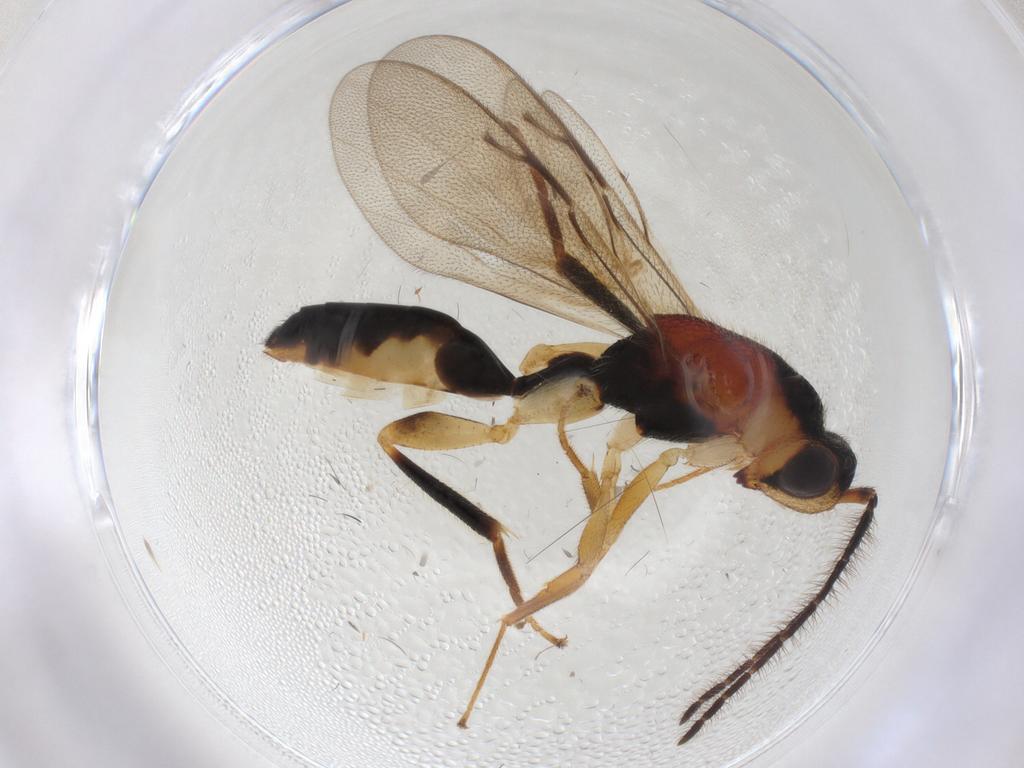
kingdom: Animalia
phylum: Arthropoda
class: Insecta
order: Hymenoptera
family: Eurytomidae
